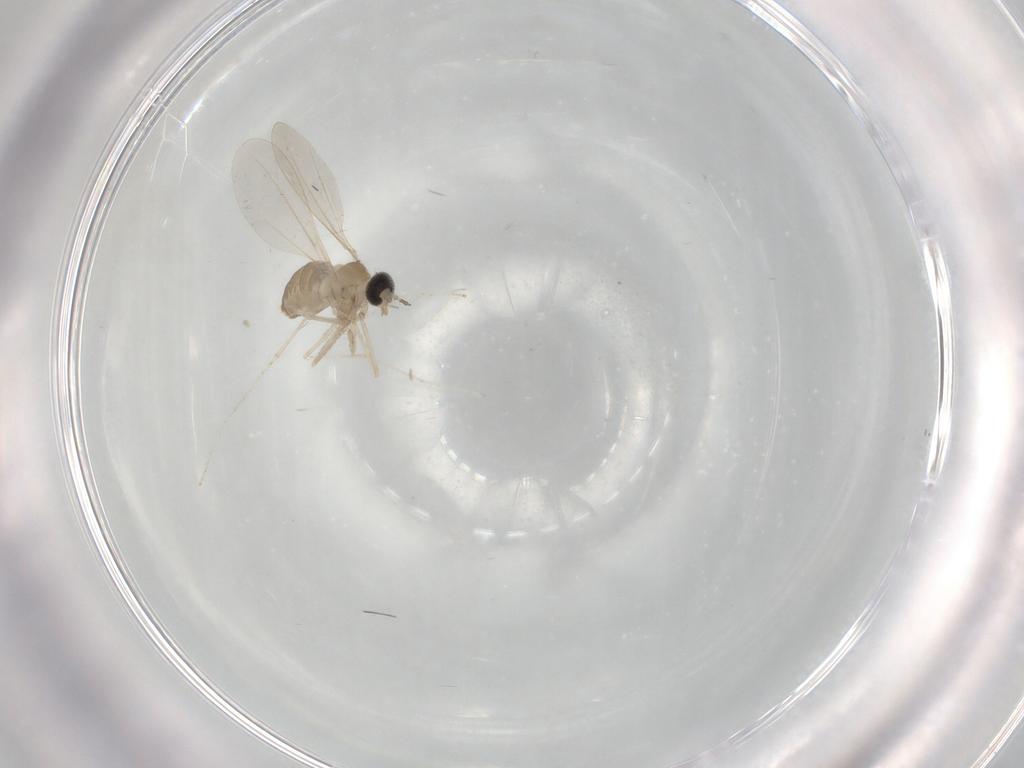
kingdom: Animalia
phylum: Arthropoda
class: Insecta
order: Diptera
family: Cecidomyiidae
